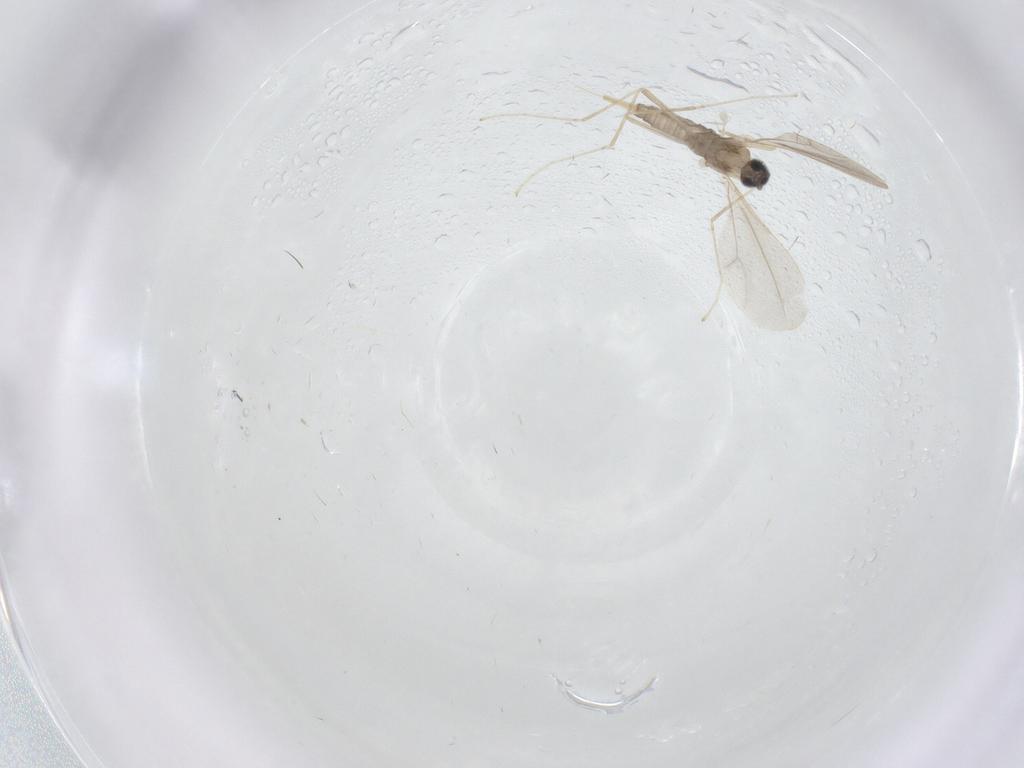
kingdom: Animalia
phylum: Arthropoda
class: Insecta
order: Diptera
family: Cecidomyiidae
